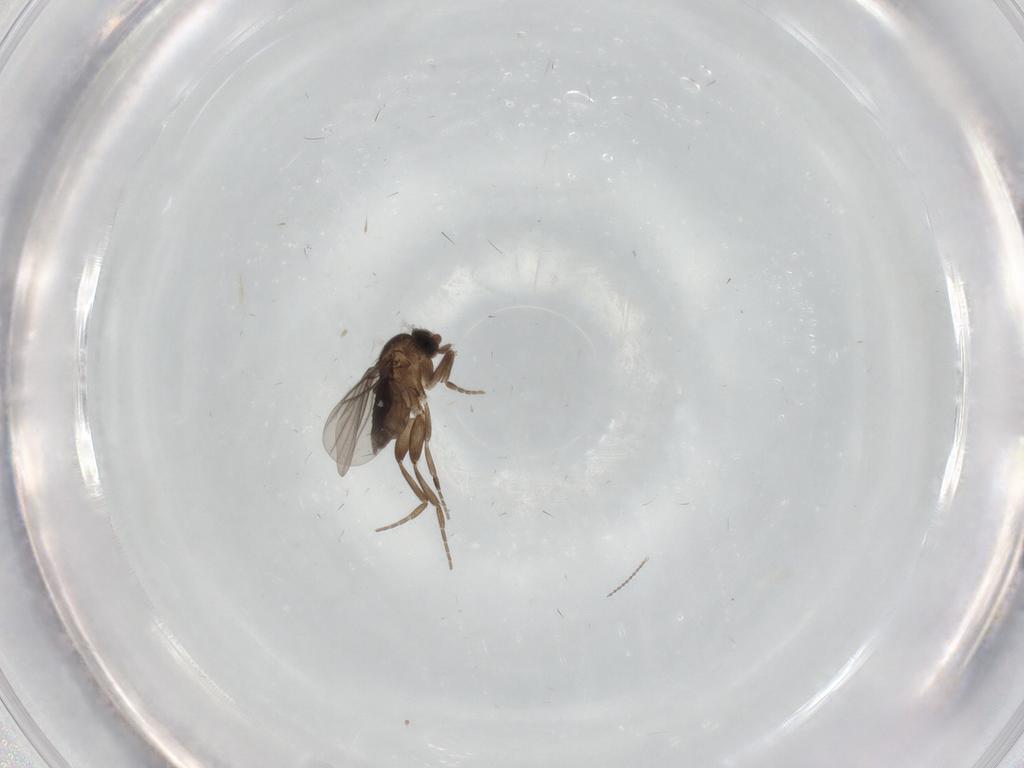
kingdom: Animalia
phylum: Arthropoda
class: Insecta
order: Diptera
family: Phoridae
